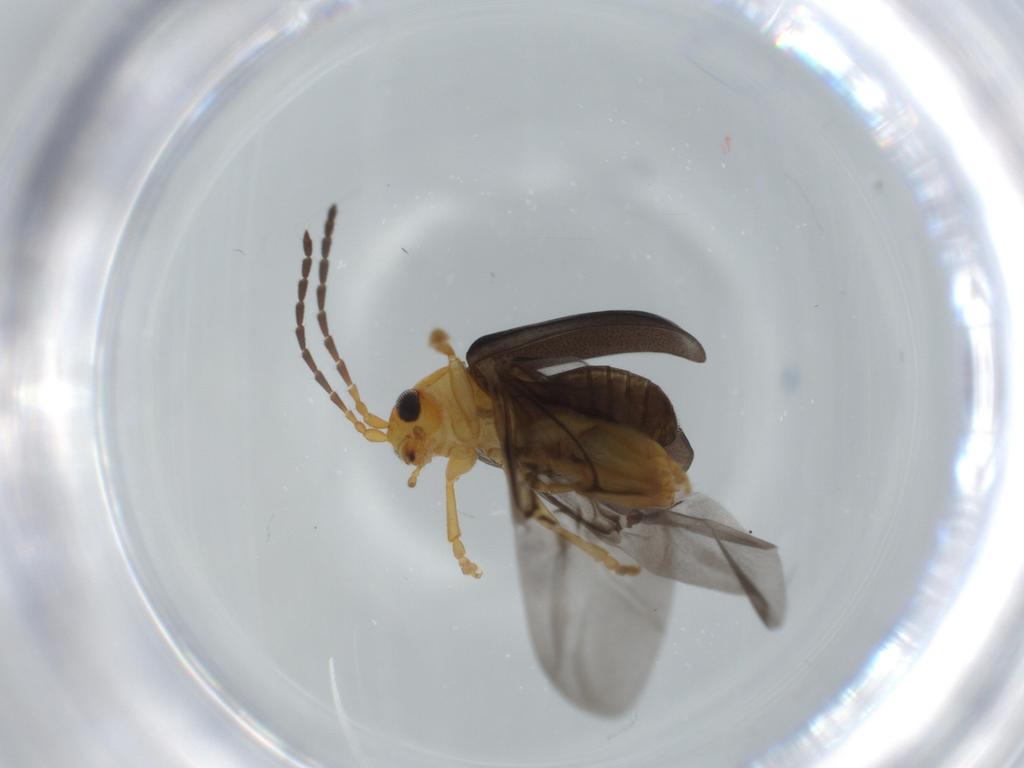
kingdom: Animalia
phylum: Arthropoda
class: Insecta
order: Coleoptera
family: Chrysomelidae
